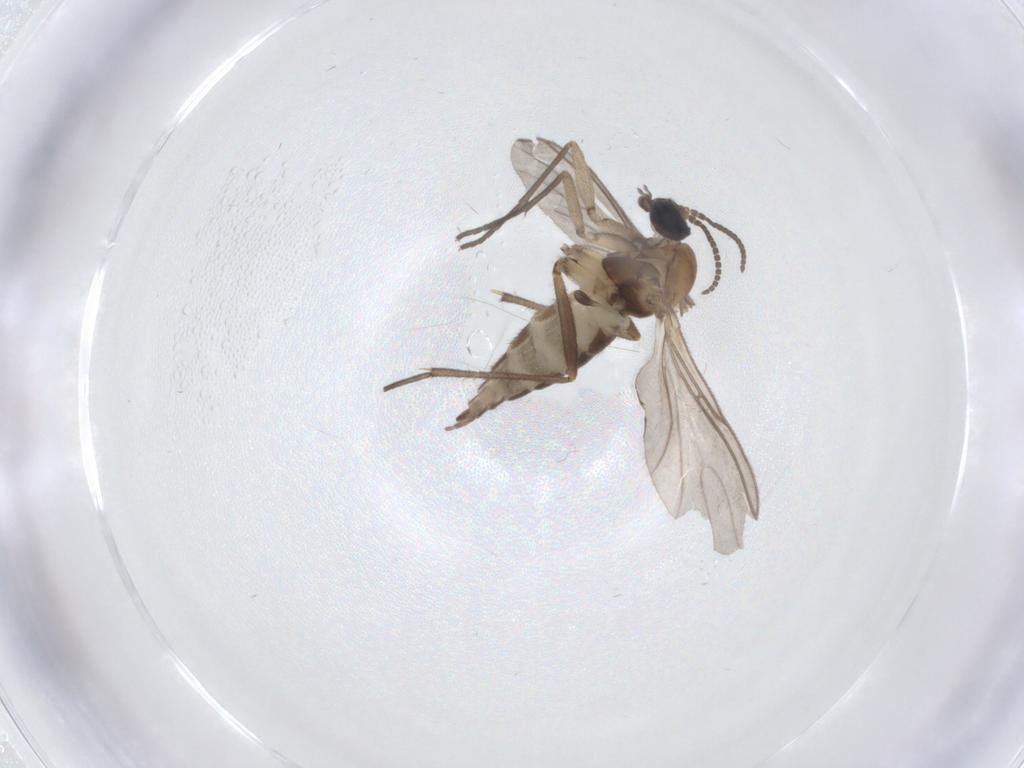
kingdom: Animalia
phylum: Arthropoda
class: Insecta
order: Diptera
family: Sciaridae
